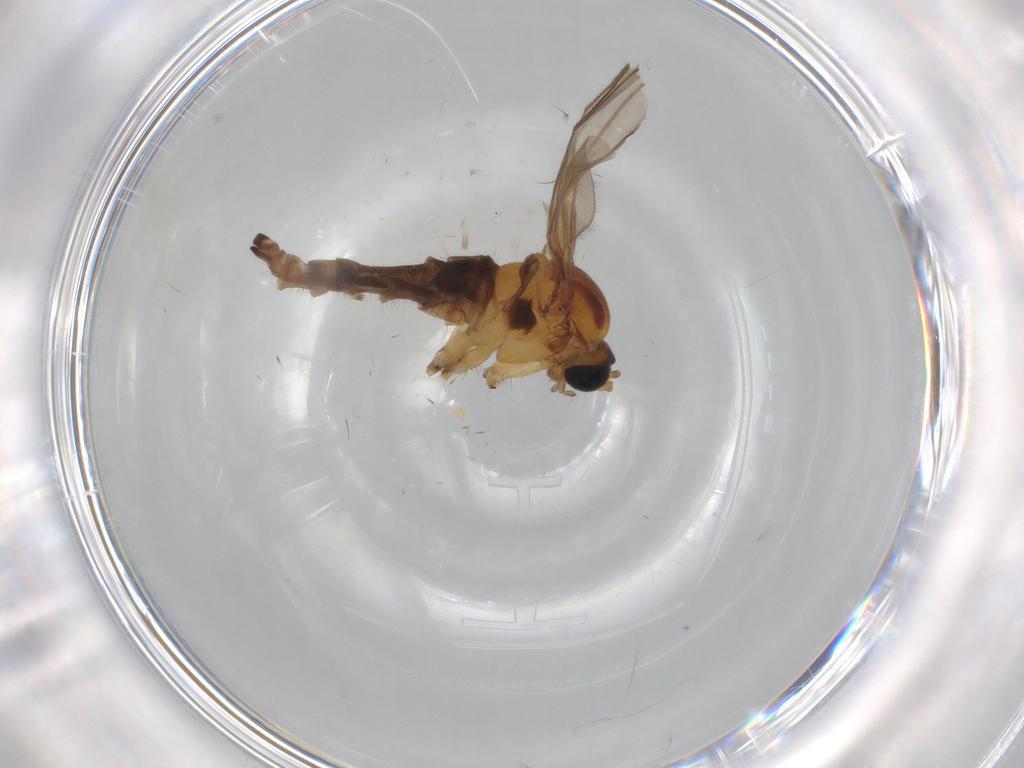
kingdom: Animalia
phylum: Arthropoda
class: Insecta
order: Diptera
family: Sciaridae
